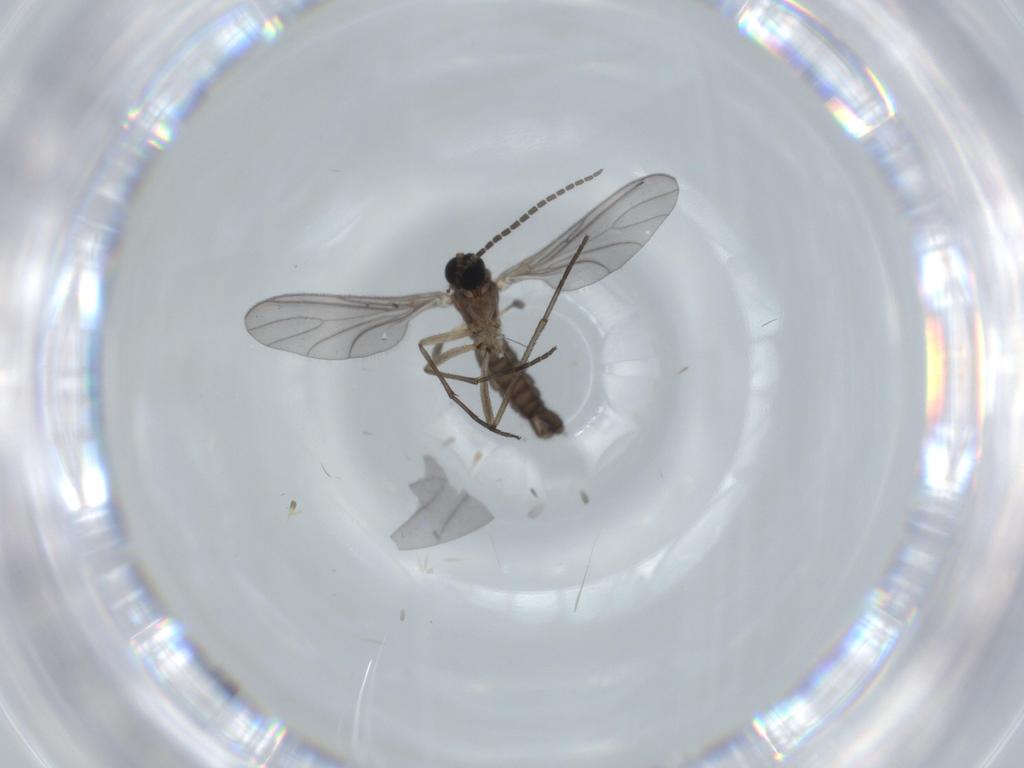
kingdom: Animalia
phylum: Arthropoda
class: Insecta
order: Diptera
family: Sciaridae
